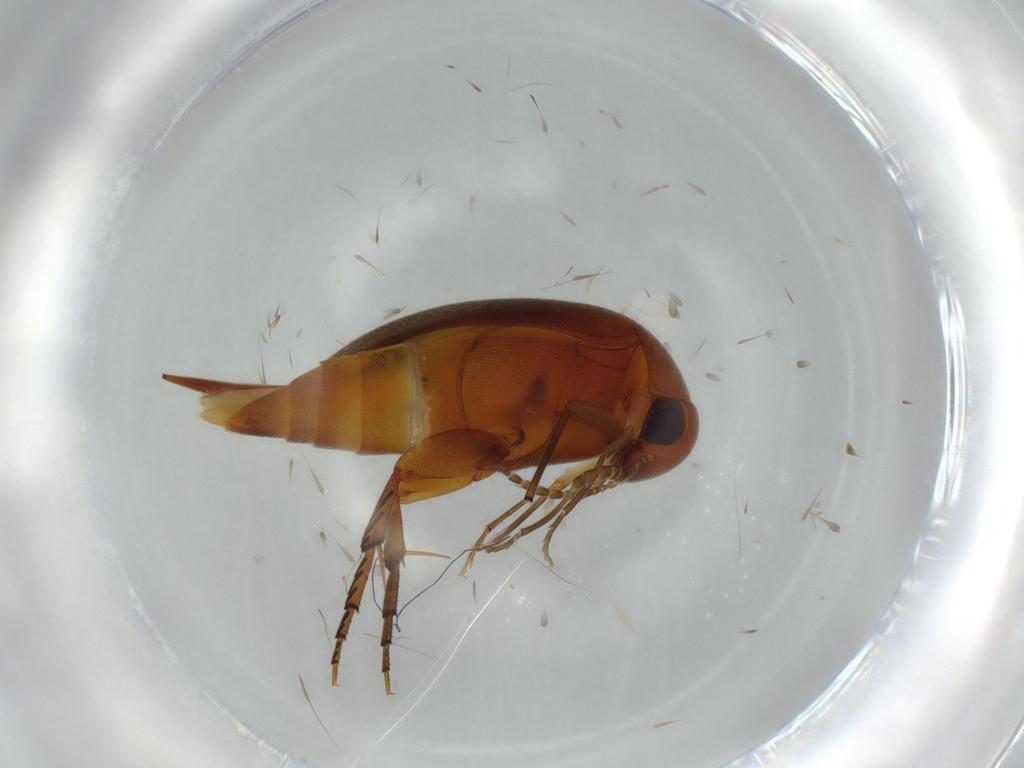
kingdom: Animalia
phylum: Arthropoda
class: Insecta
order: Coleoptera
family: Mordellidae
